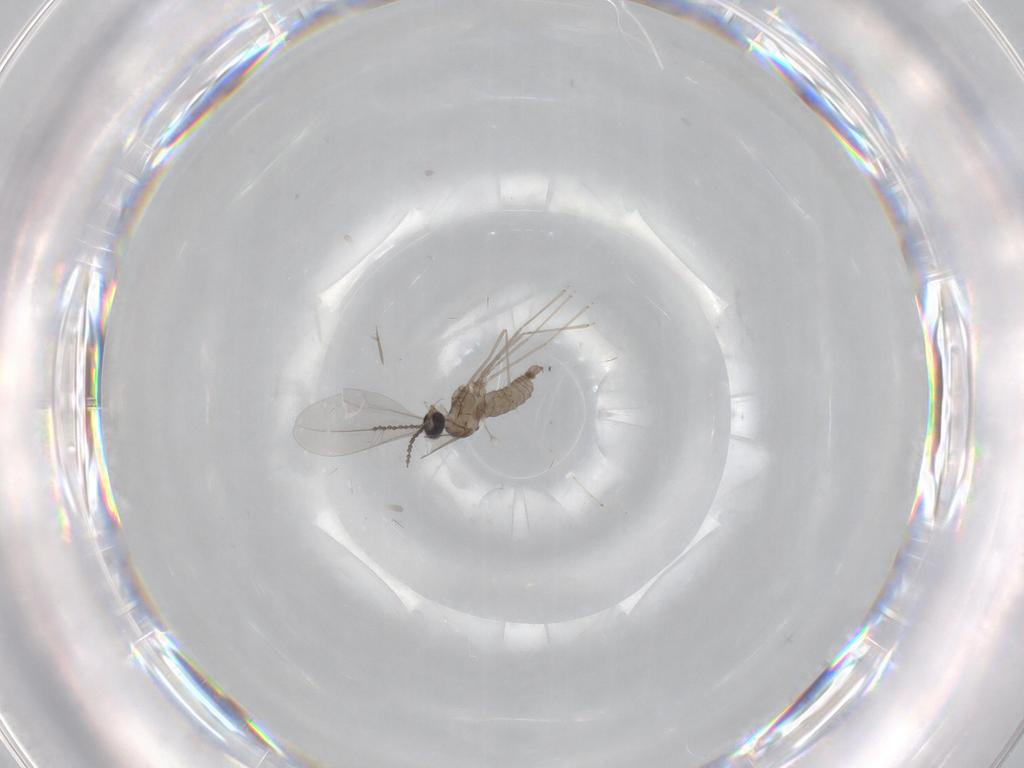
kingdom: Animalia
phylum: Arthropoda
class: Insecta
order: Diptera
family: Cecidomyiidae
